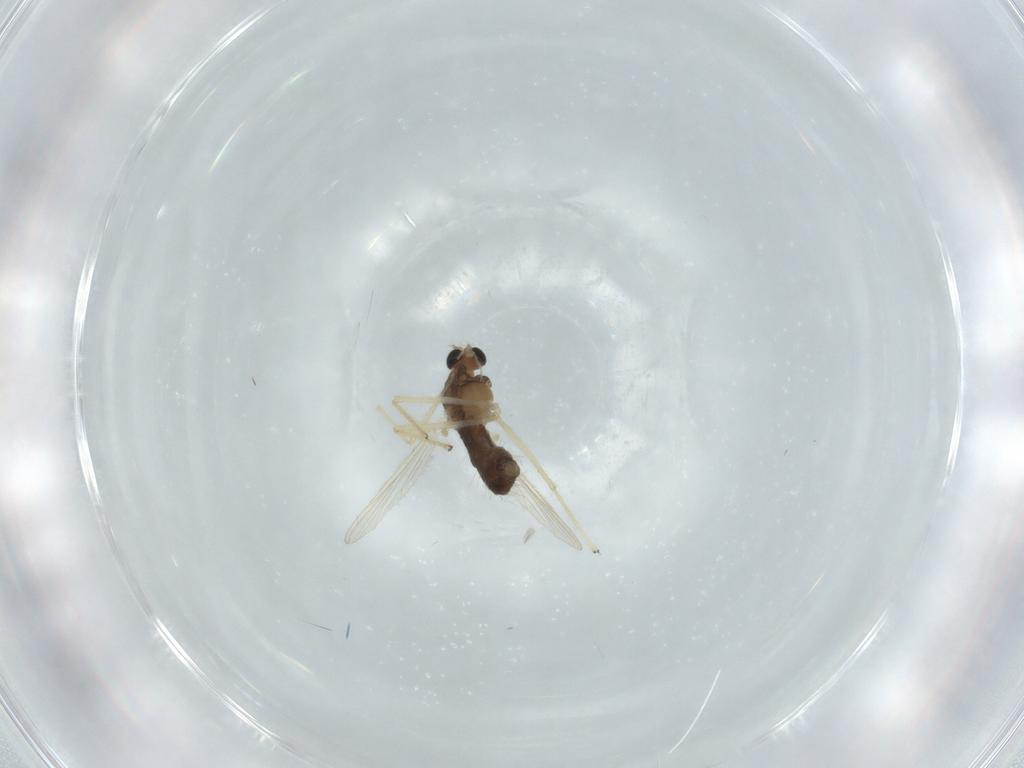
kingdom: Animalia
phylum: Arthropoda
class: Insecta
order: Diptera
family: Chironomidae
